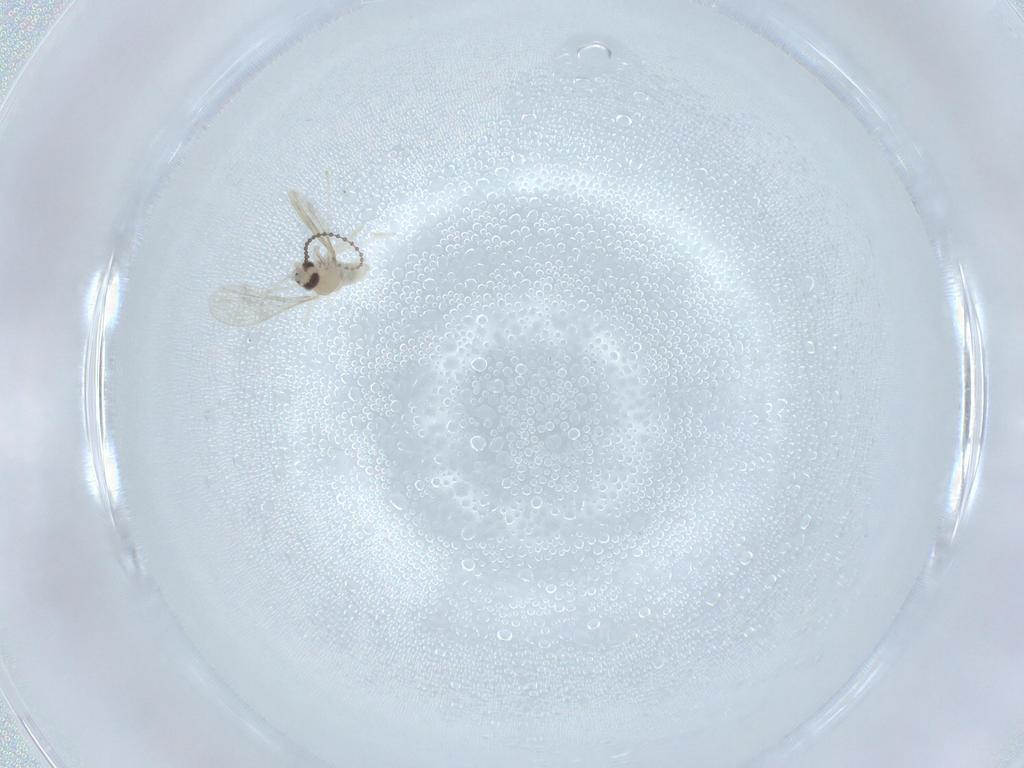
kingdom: Animalia
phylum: Arthropoda
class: Insecta
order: Diptera
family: Cecidomyiidae
